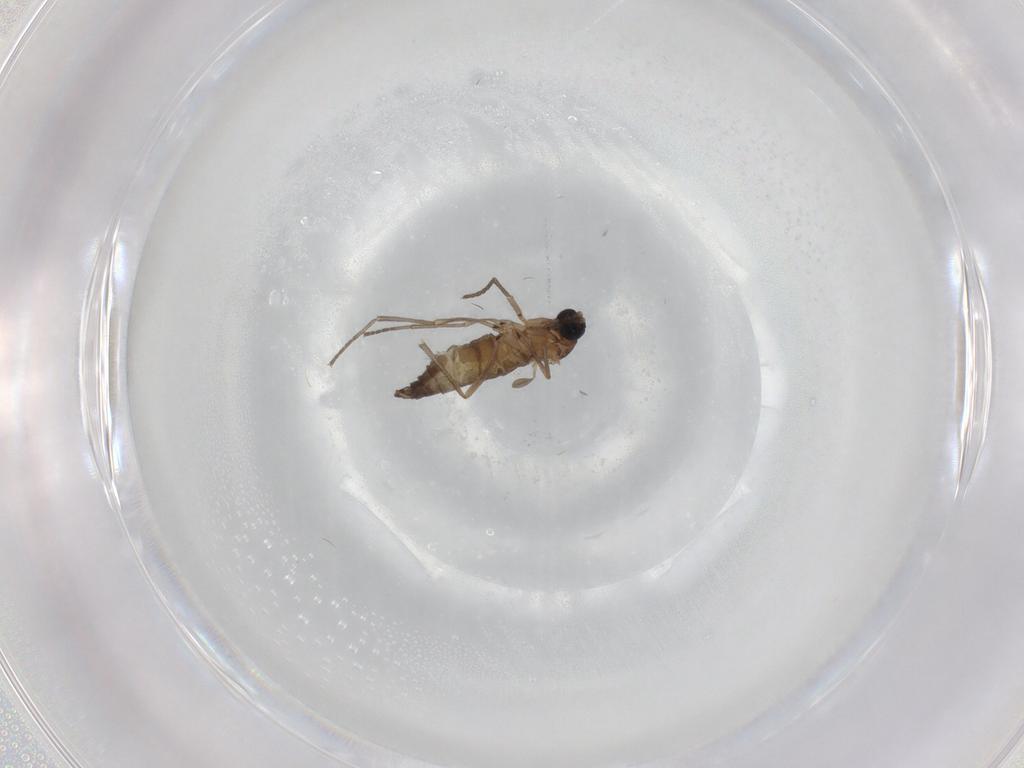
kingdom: Animalia
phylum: Arthropoda
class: Insecta
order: Diptera
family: Sciaridae
